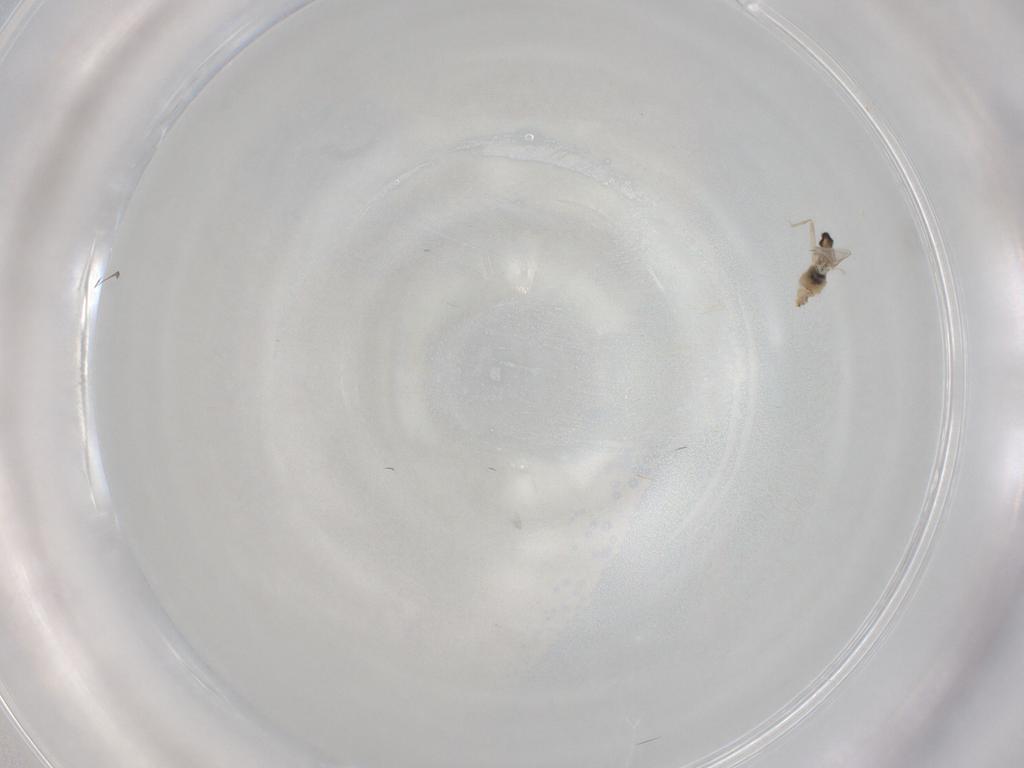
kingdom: Animalia
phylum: Arthropoda
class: Insecta
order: Diptera
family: Cecidomyiidae
